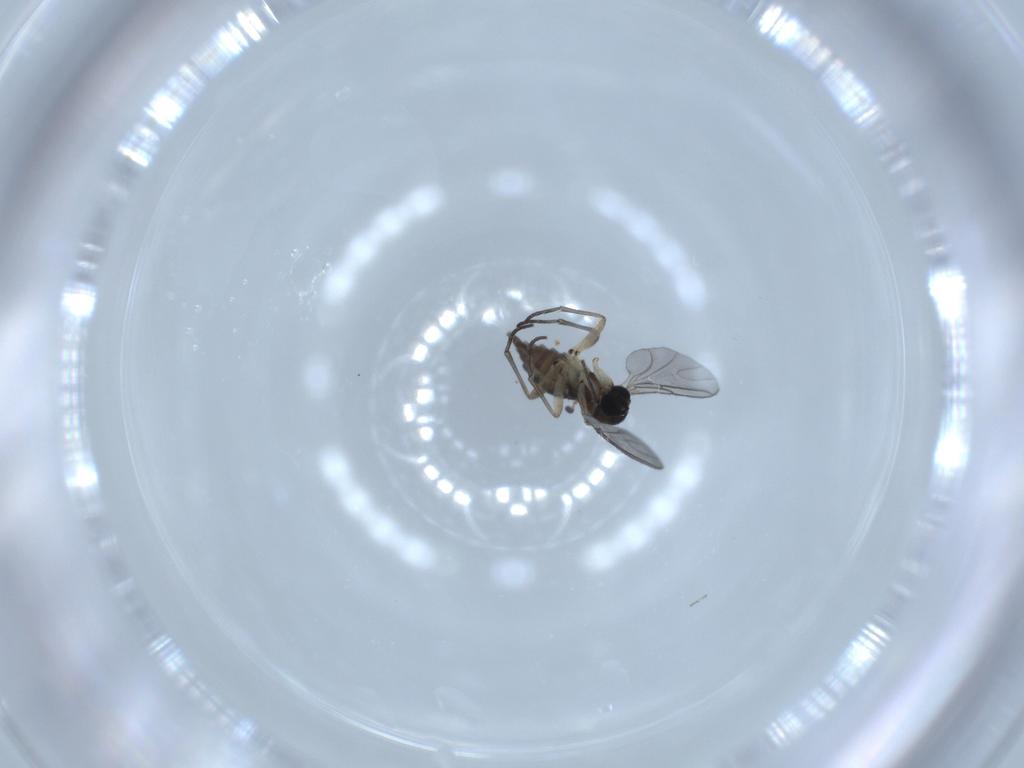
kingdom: Animalia
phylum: Arthropoda
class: Insecta
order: Diptera
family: Sciaridae
